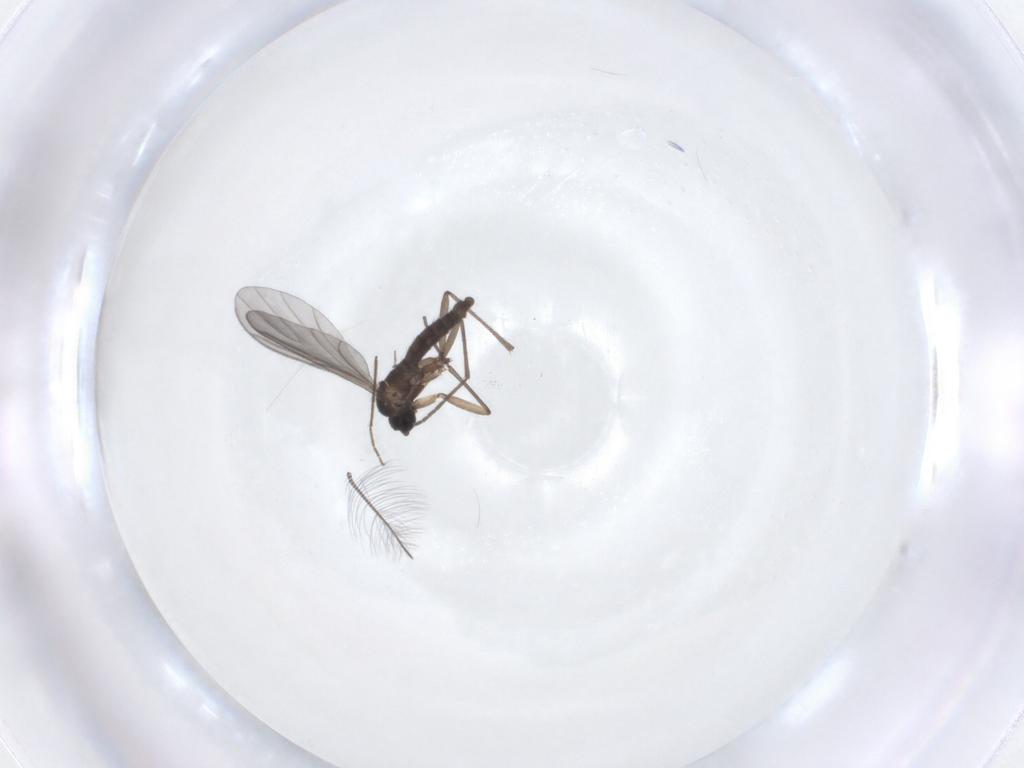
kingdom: Animalia
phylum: Arthropoda
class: Insecta
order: Diptera
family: Sciaridae
